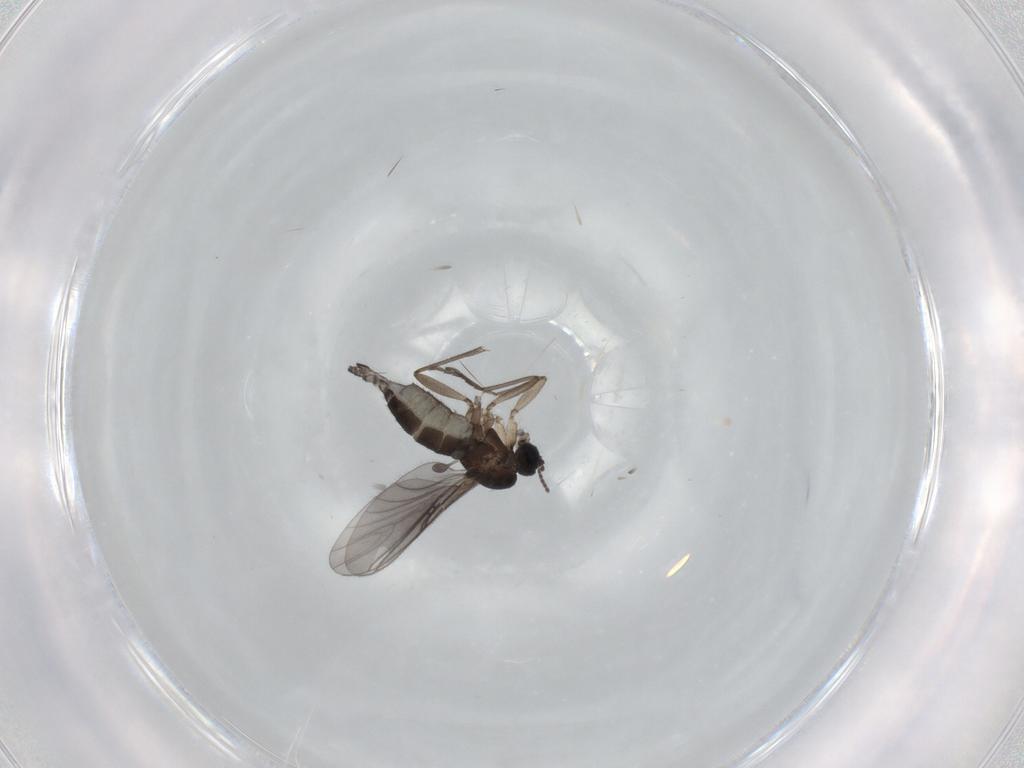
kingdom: Animalia
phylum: Arthropoda
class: Insecta
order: Diptera
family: Sciaridae
